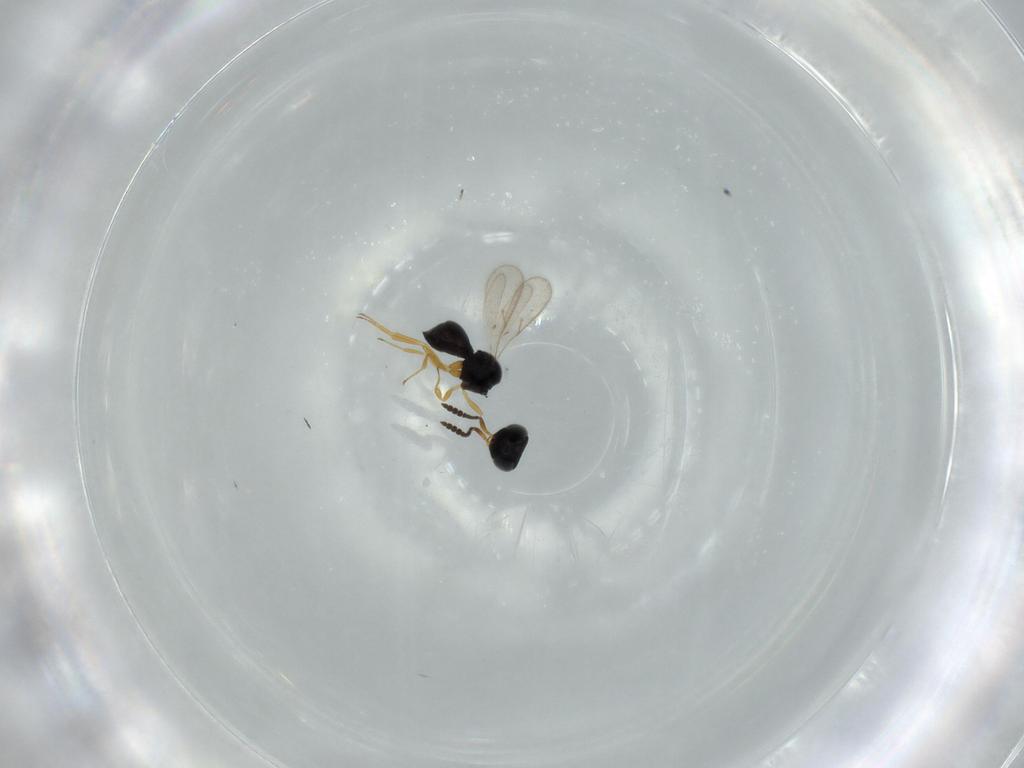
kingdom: Animalia
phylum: Arthropoda
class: Insecta
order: Hymenoptera
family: Scelionidae
